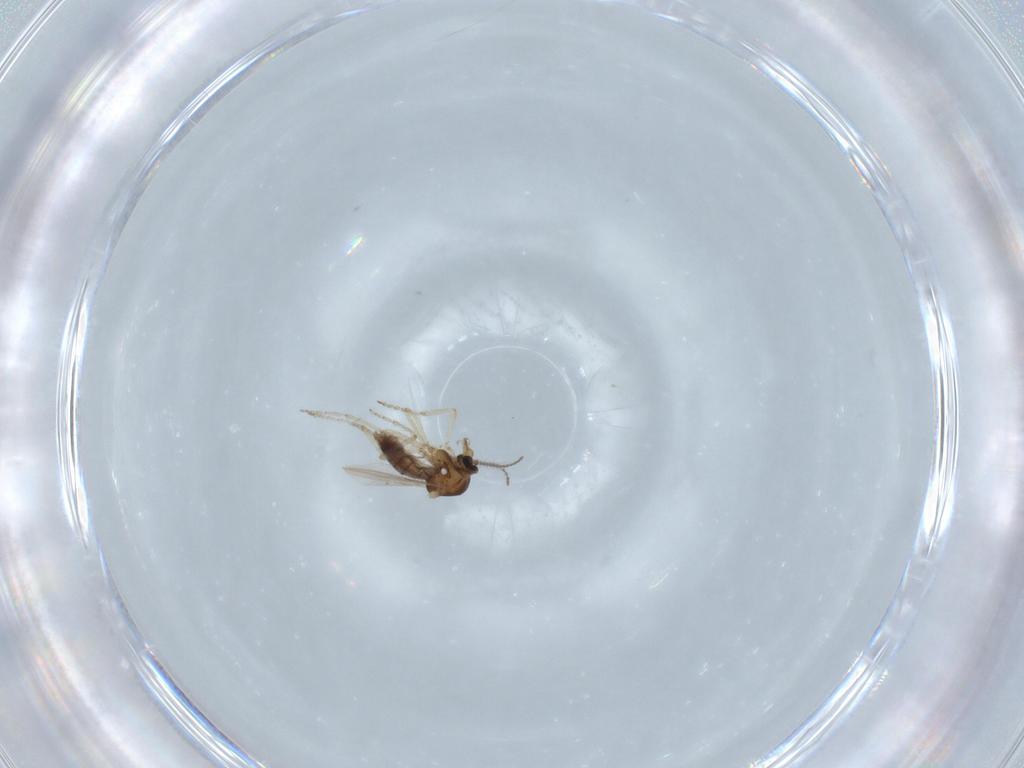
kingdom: Animalia
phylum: Arthropoda
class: Insecta
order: Diptera
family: Ceratopogonidae
